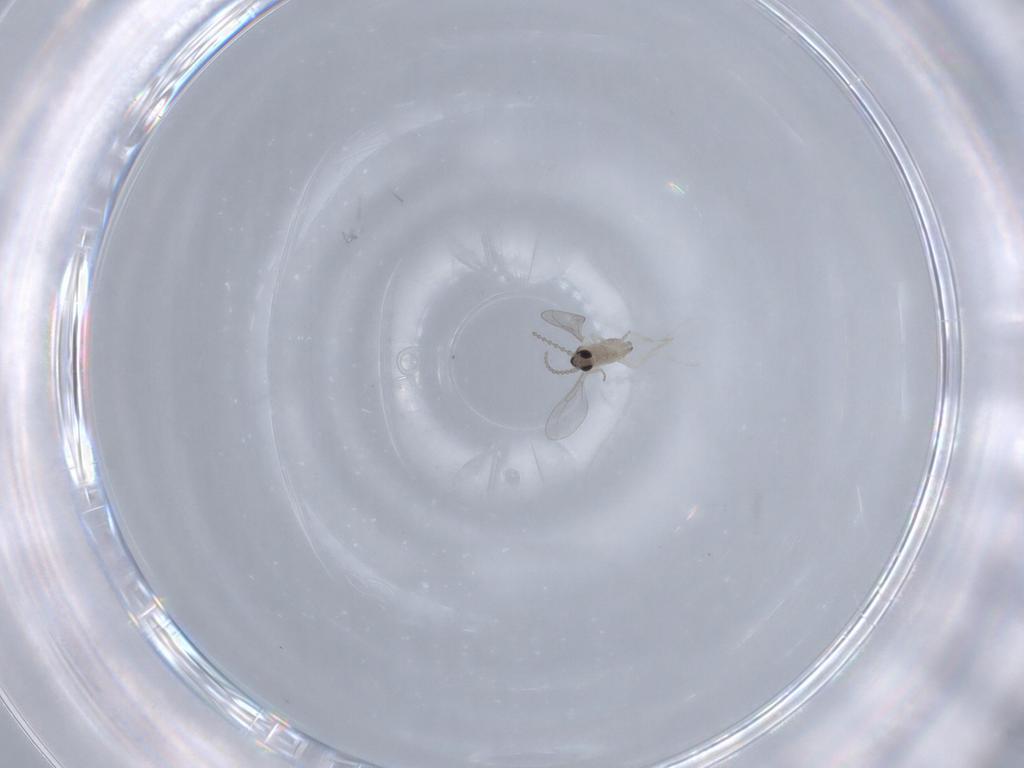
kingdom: Animalia
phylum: Arthropoda
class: Insecta
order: Diptera
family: Cecidomyiidae
